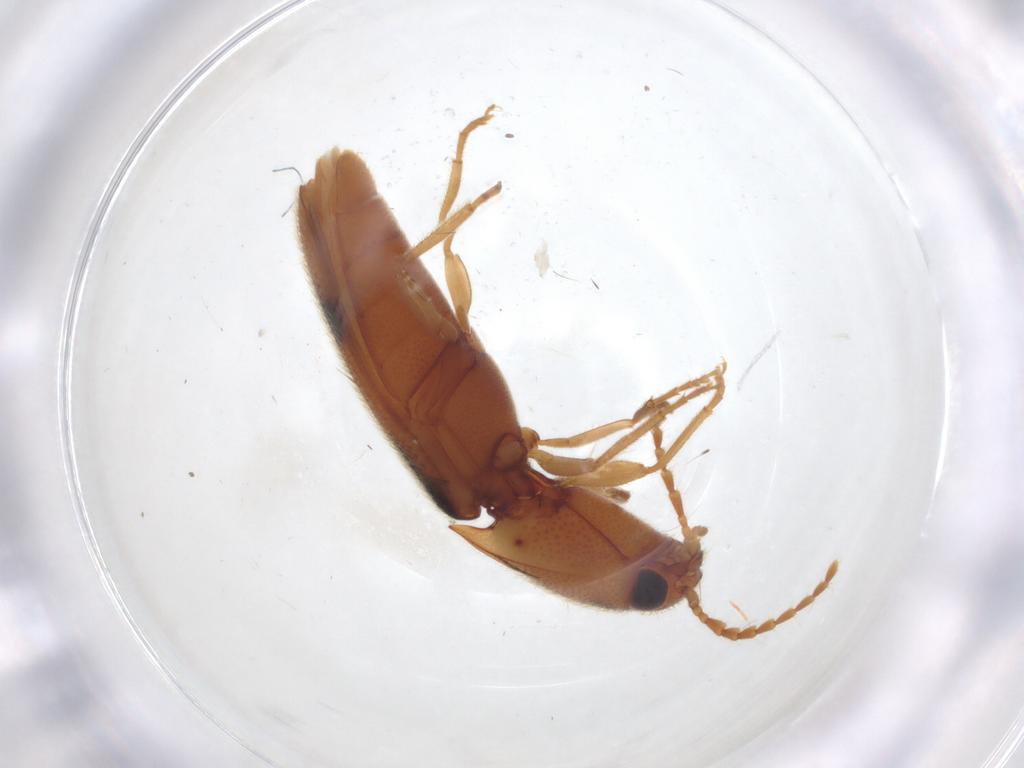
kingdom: Animalia
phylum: Arthropoda
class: Insecta
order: Coleoptera
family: Elateridae
